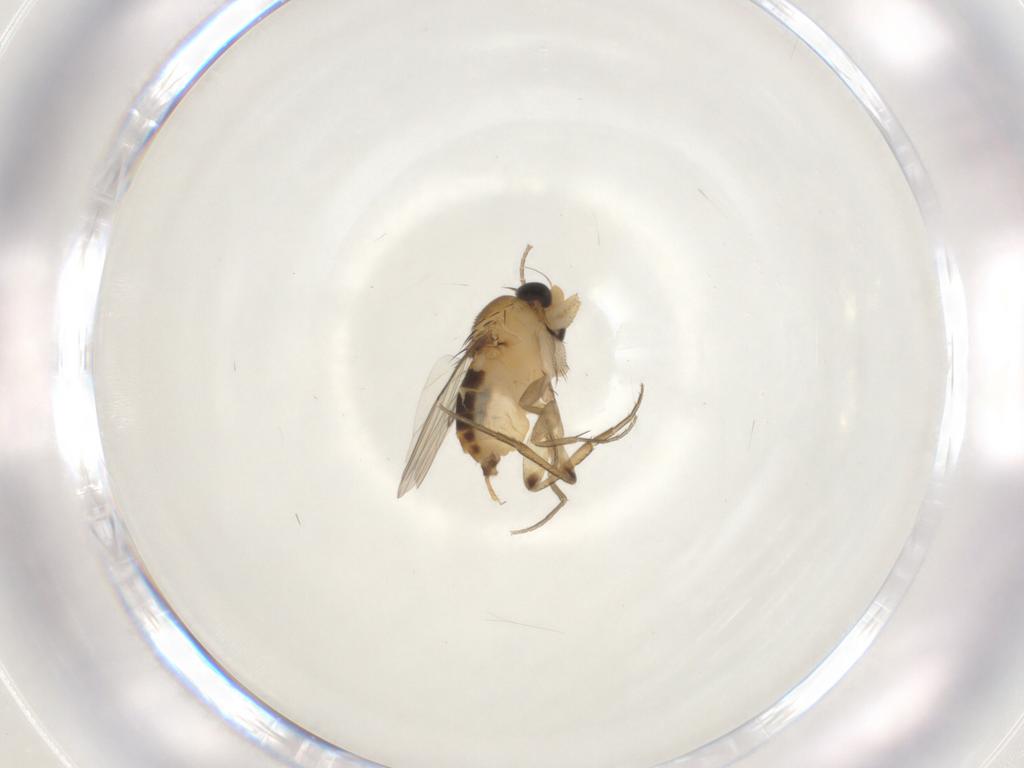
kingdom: Animalia
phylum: Arthropoda
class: Insecta
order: Diptera
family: Phoridae
